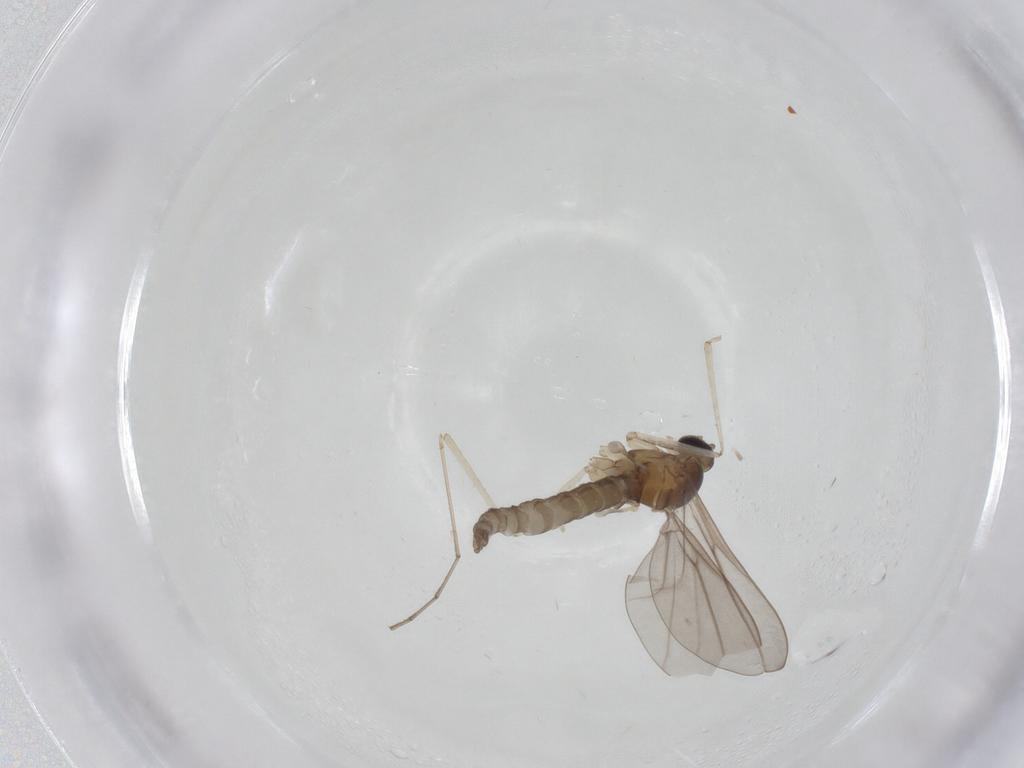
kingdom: Animalia
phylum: Arthropoda
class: Insecta
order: Diptera
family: Cecidomyiidae
